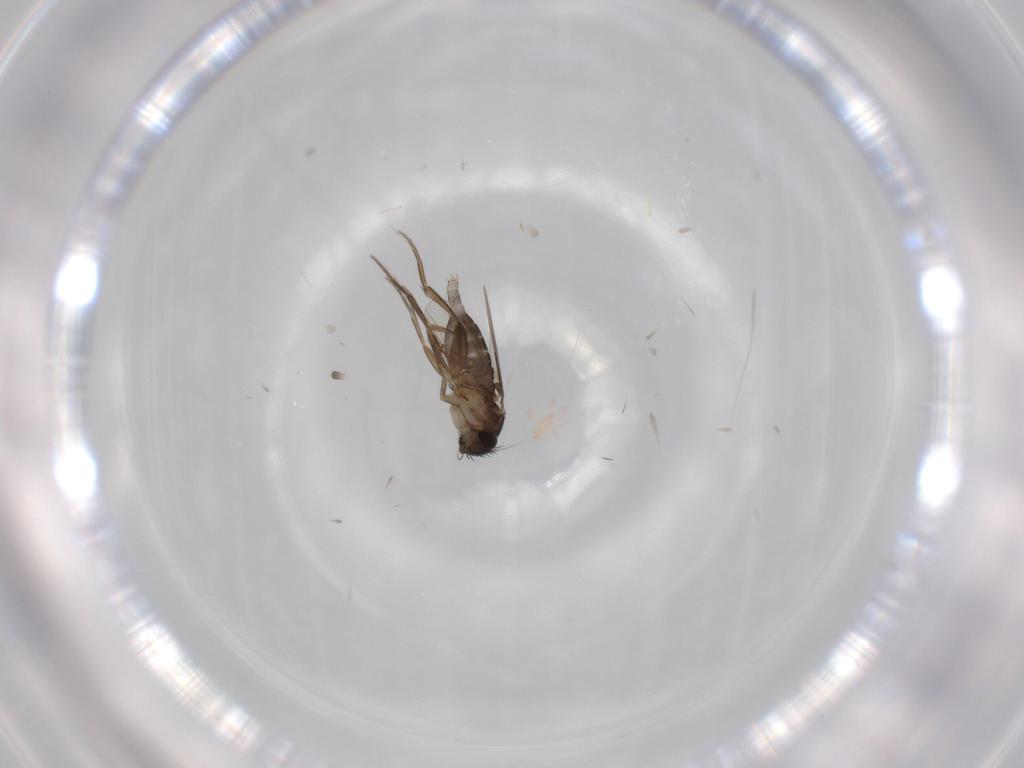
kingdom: Animalia
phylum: Arthropoda
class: Insecta
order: Diptera
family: Phoridae
